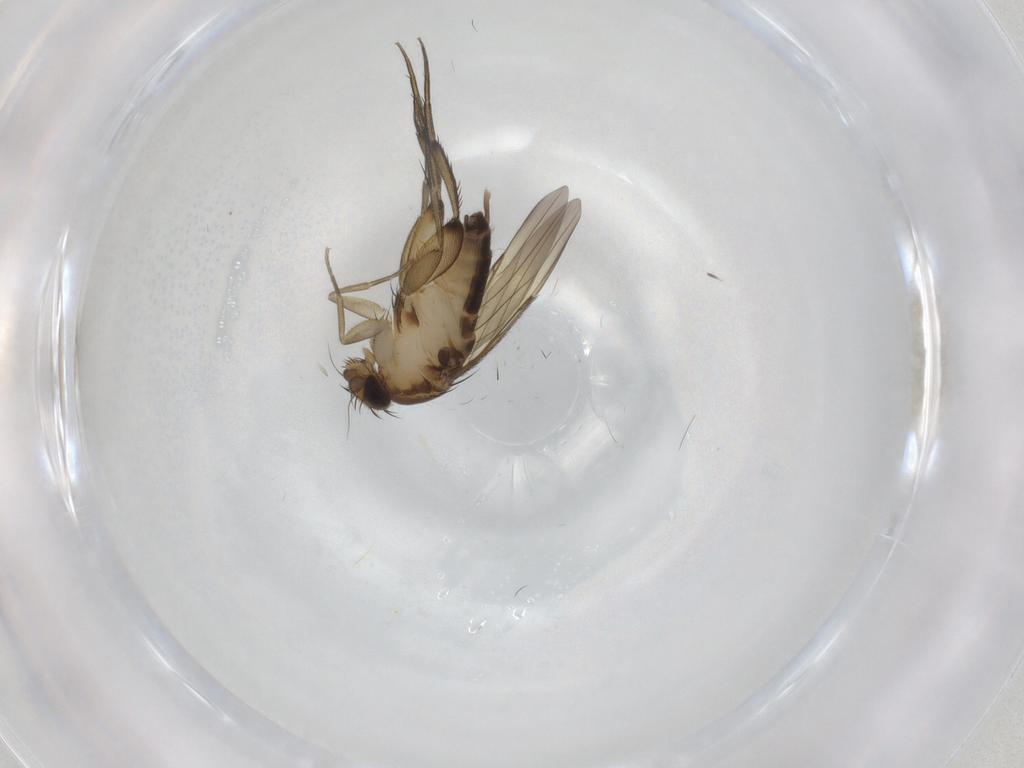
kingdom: Animalia
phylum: Arthropoda
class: Insecta
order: Diptera
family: Phoridae
